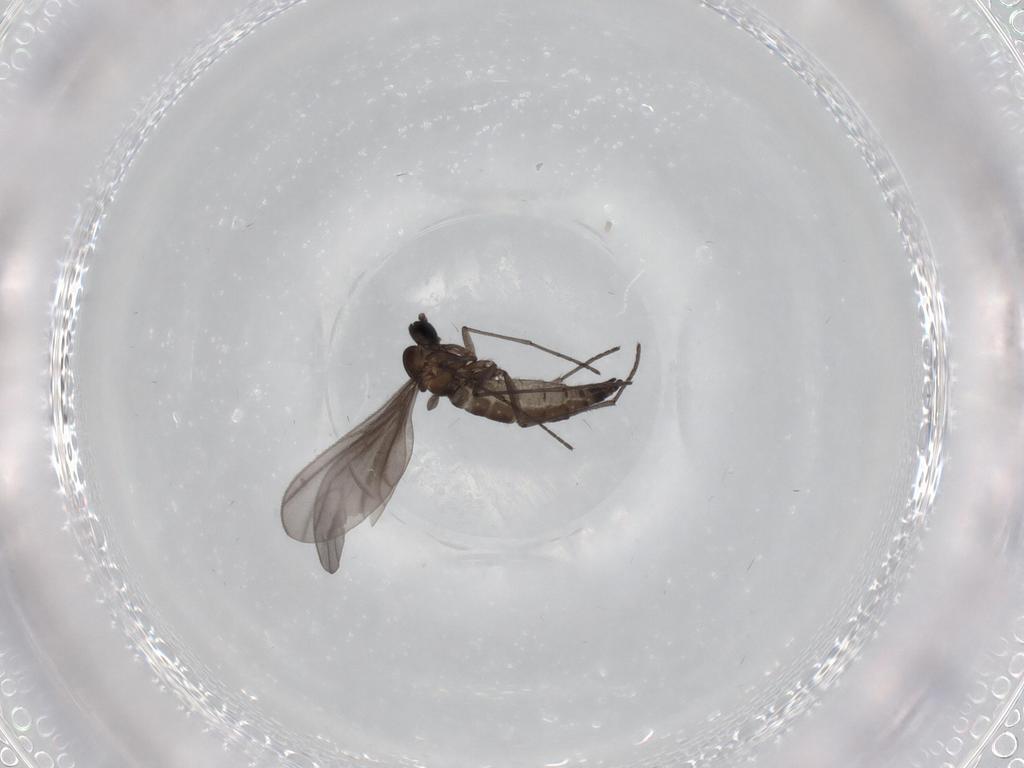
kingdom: Animalia
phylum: Arthropoda
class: Insecta
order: Diptera
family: Sciaridae
